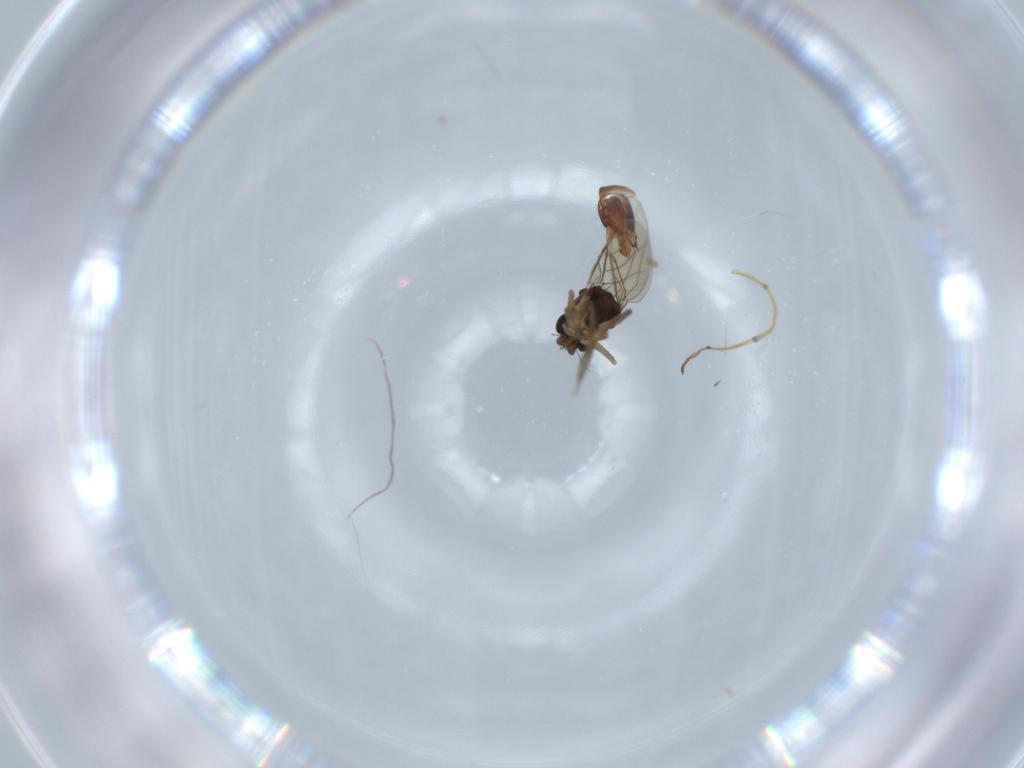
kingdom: Animalia
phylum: Arthropoda
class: Insecta
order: Diptera
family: Phoridae
